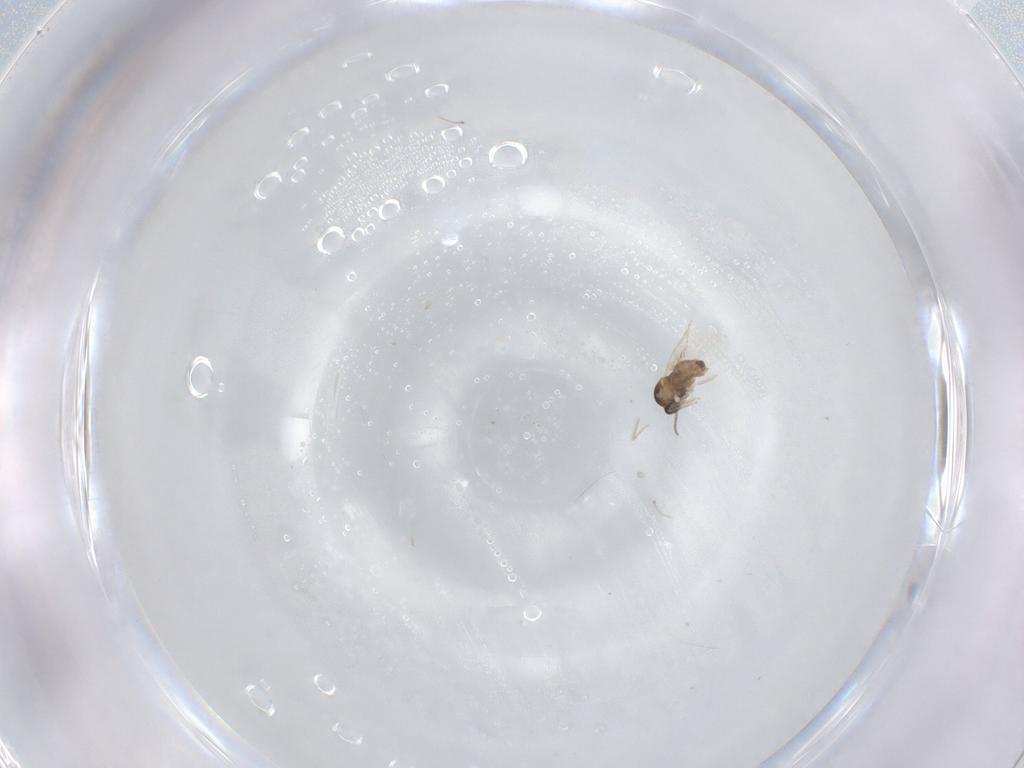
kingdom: Animalia
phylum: Arthropoda
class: Insecta
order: Diptera
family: Cecidomyiidae
